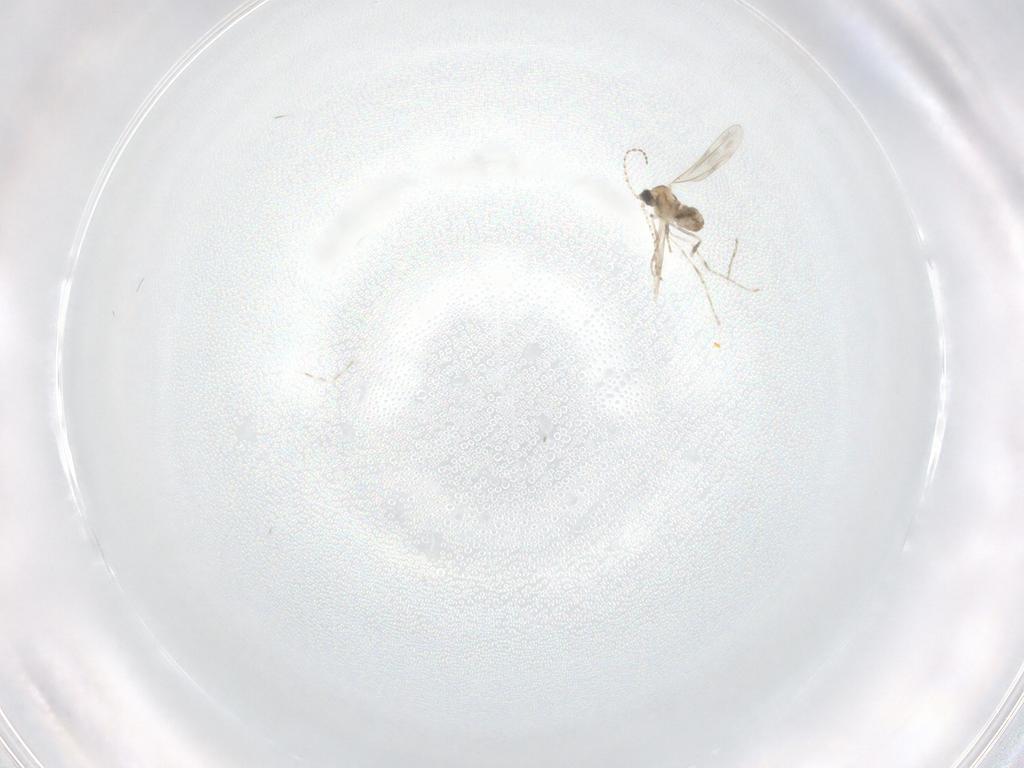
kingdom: Animalia
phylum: Arthropoda
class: Insecta
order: Diptera
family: Cecidomyiidae
